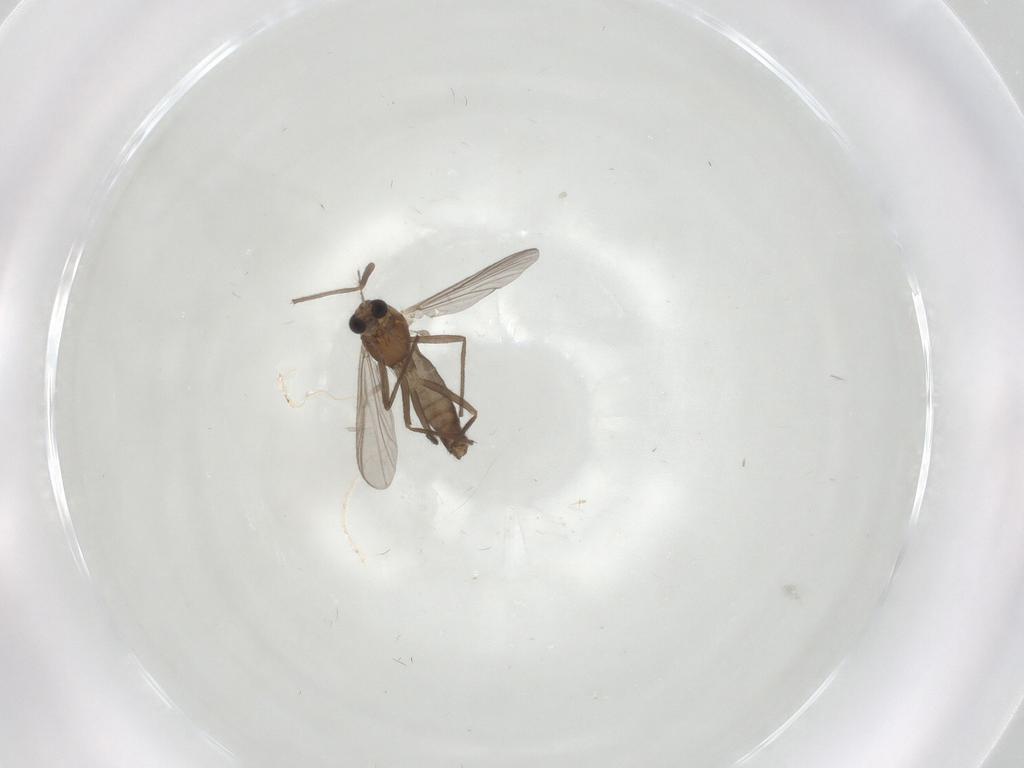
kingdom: Animalia
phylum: Arthropoda
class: Insecta
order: Diptera
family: Chironomidae
